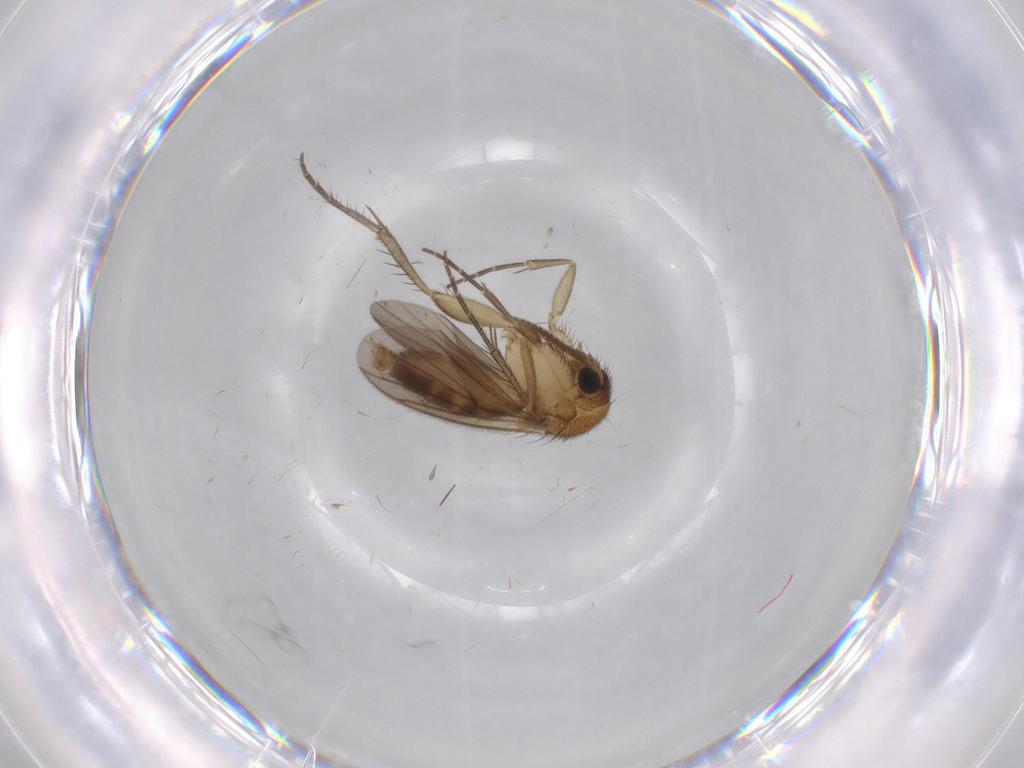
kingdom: Animalia
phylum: Arthropoda
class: Insecta
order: Diptera
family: Mycetophilidae
